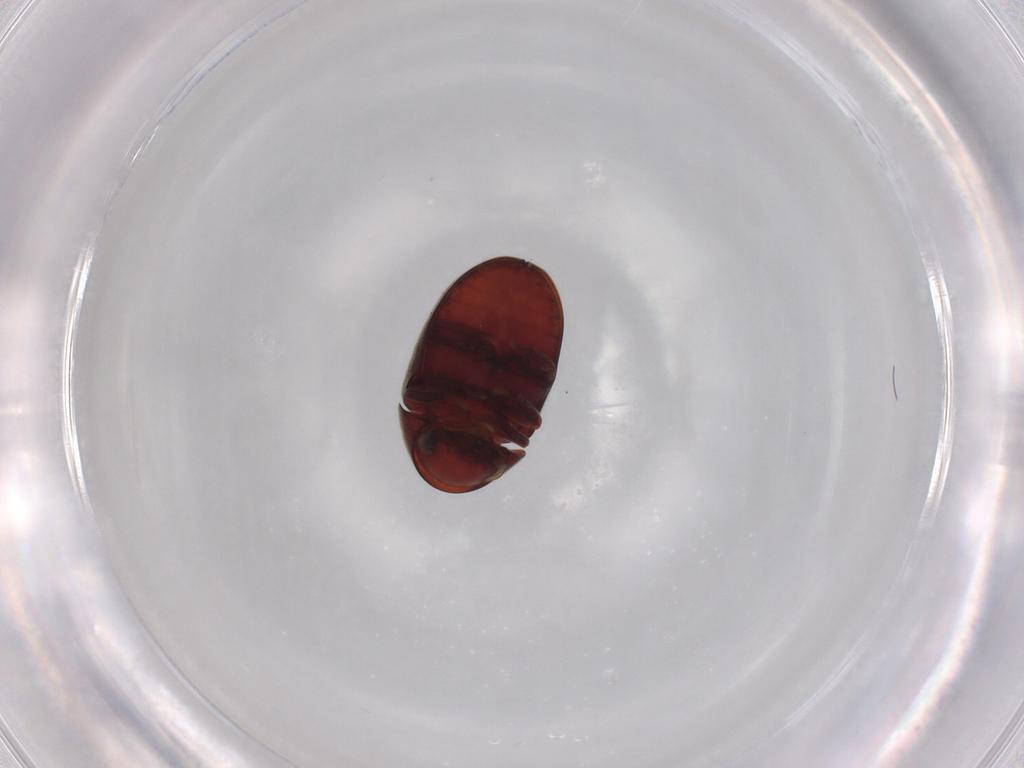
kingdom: Animalia
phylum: Arthropoda
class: Insecta
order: Coleoptera
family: Ptinidae
